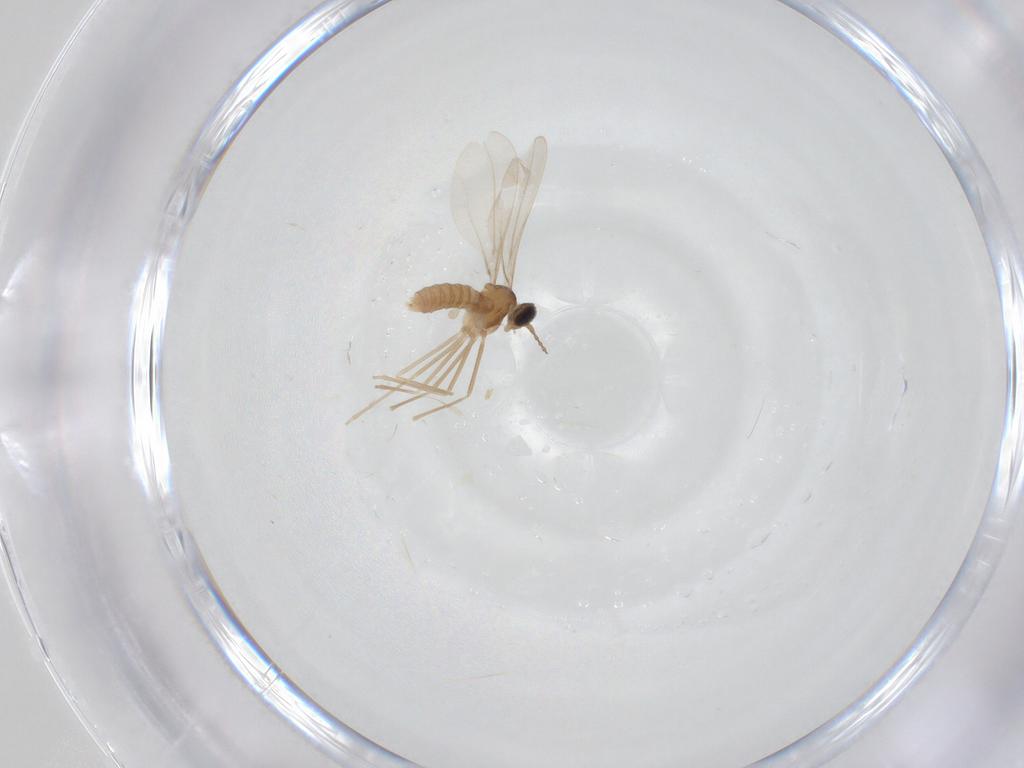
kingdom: Animalia
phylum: Arthropoda
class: Insecta
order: Diptera
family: Cecidomyiidae
